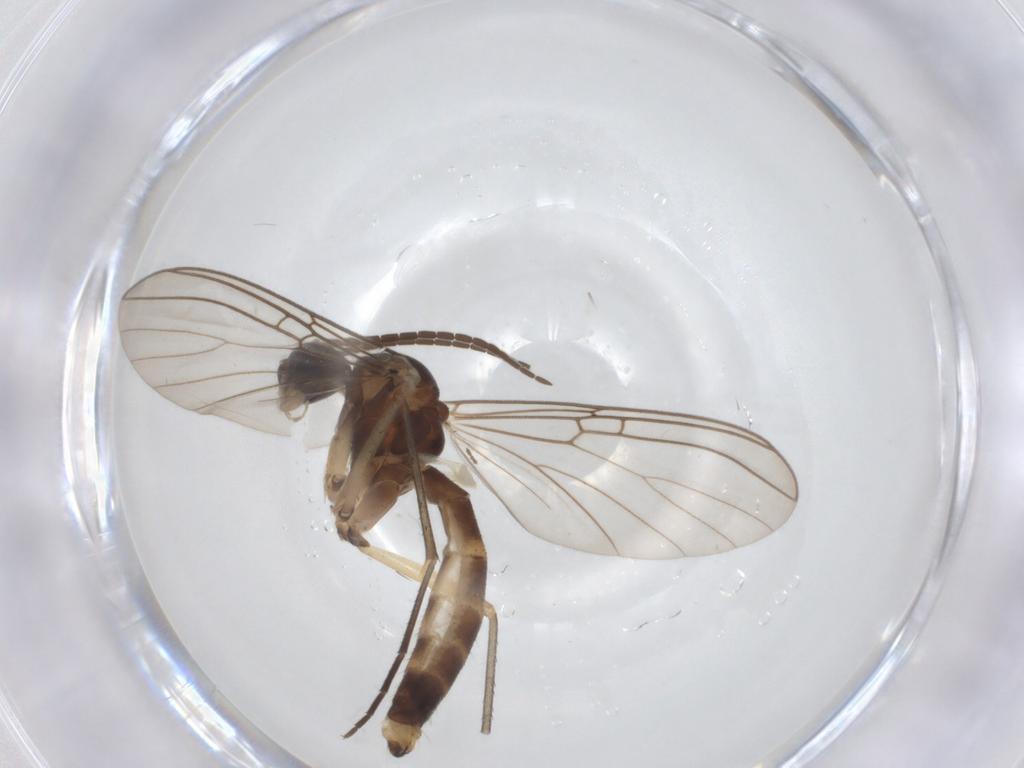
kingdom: Animalia
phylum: Arthropoda
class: Insecta
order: Diptera
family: Mycetophilidae
